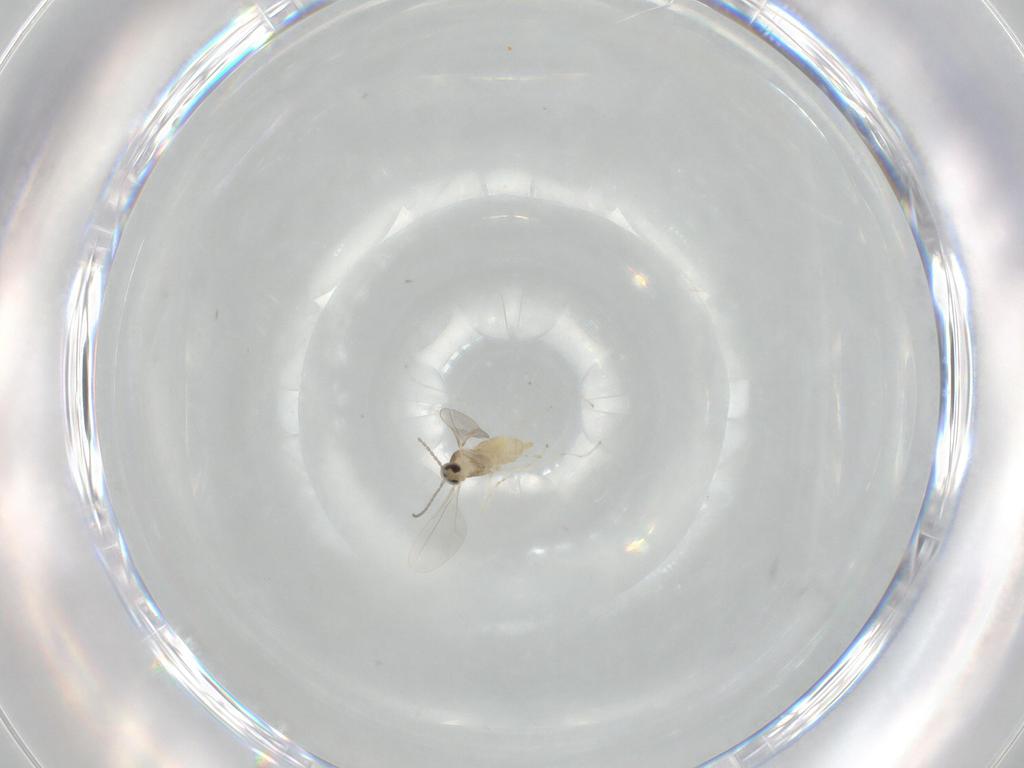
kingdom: Animalia
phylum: Arthropoda
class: Insecta
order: Diptera
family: Cecidomyiidae
